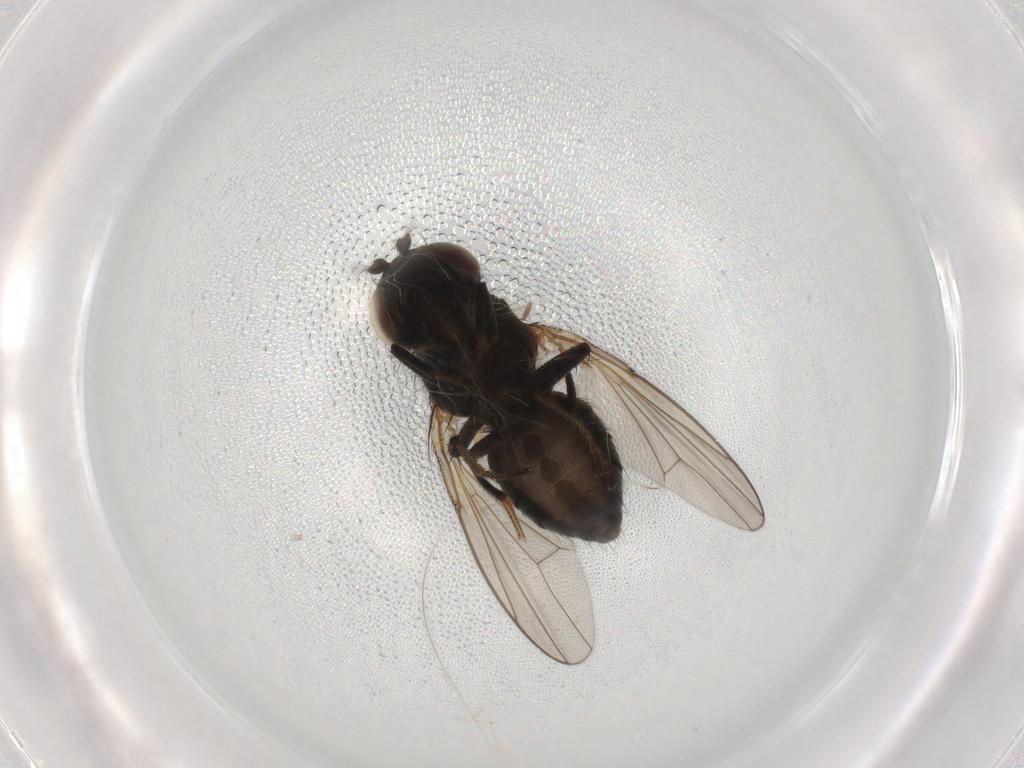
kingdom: Animalia
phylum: Arthropoda
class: Insecta
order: Diptera
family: Ephydridae
